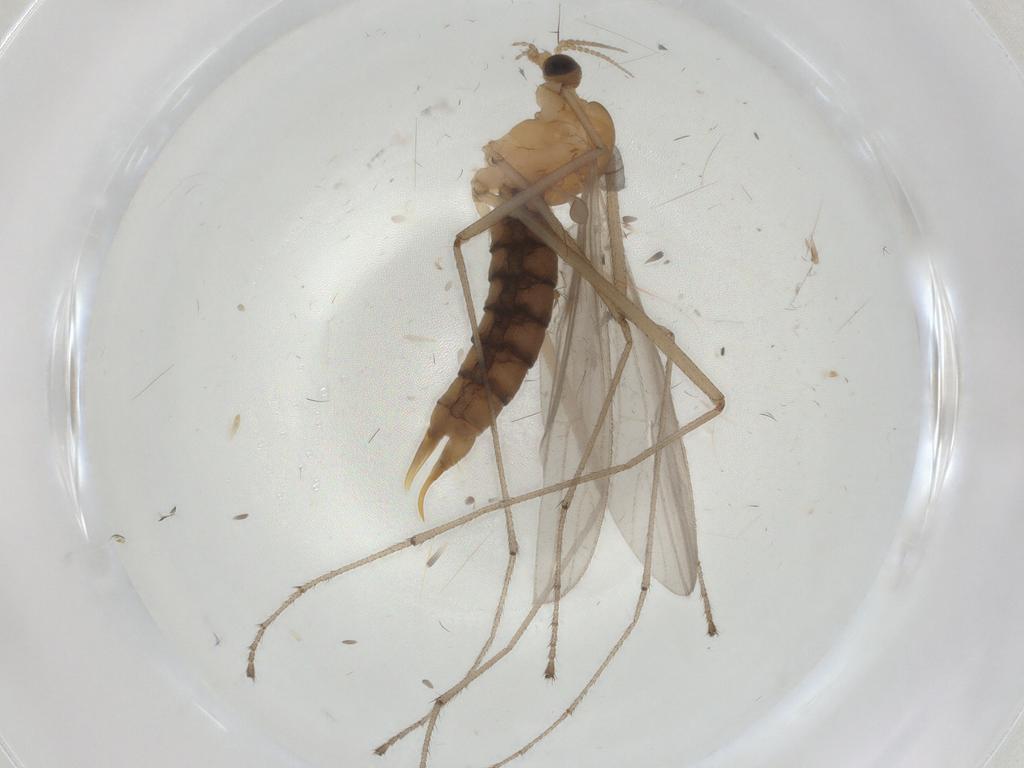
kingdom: Animalia
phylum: Arthropoda
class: Insecta
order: Diptera
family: Limoniidae
